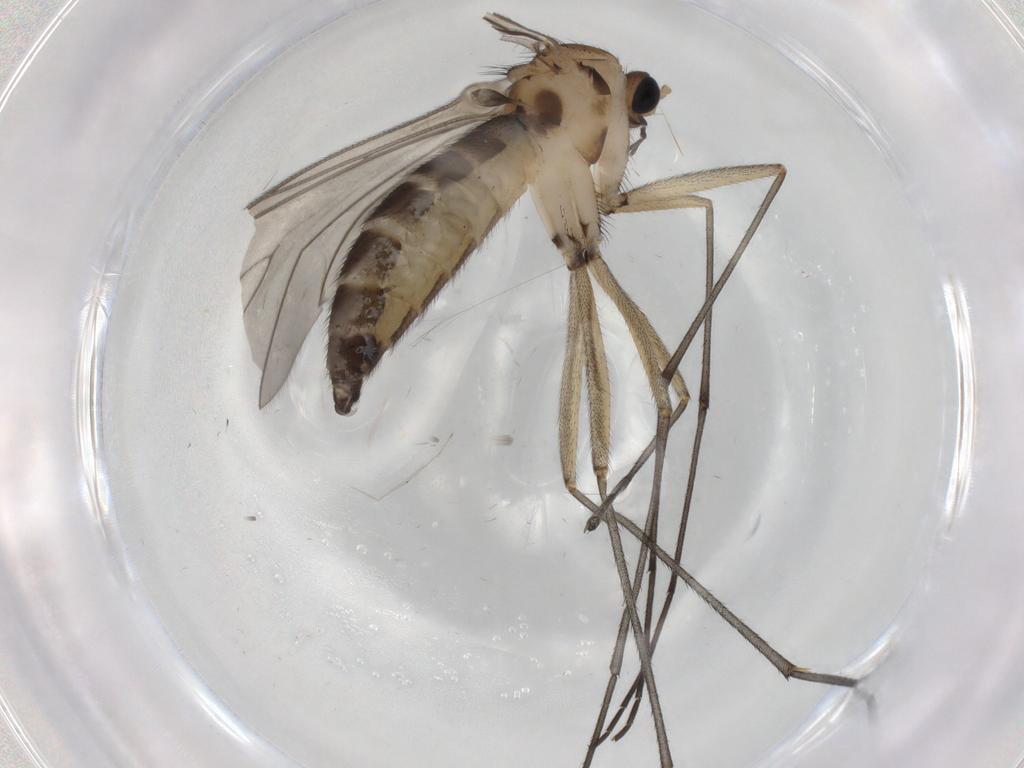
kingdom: Animalia
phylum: Arthropoda
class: Insecta
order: Diptera
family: Sciaridae
